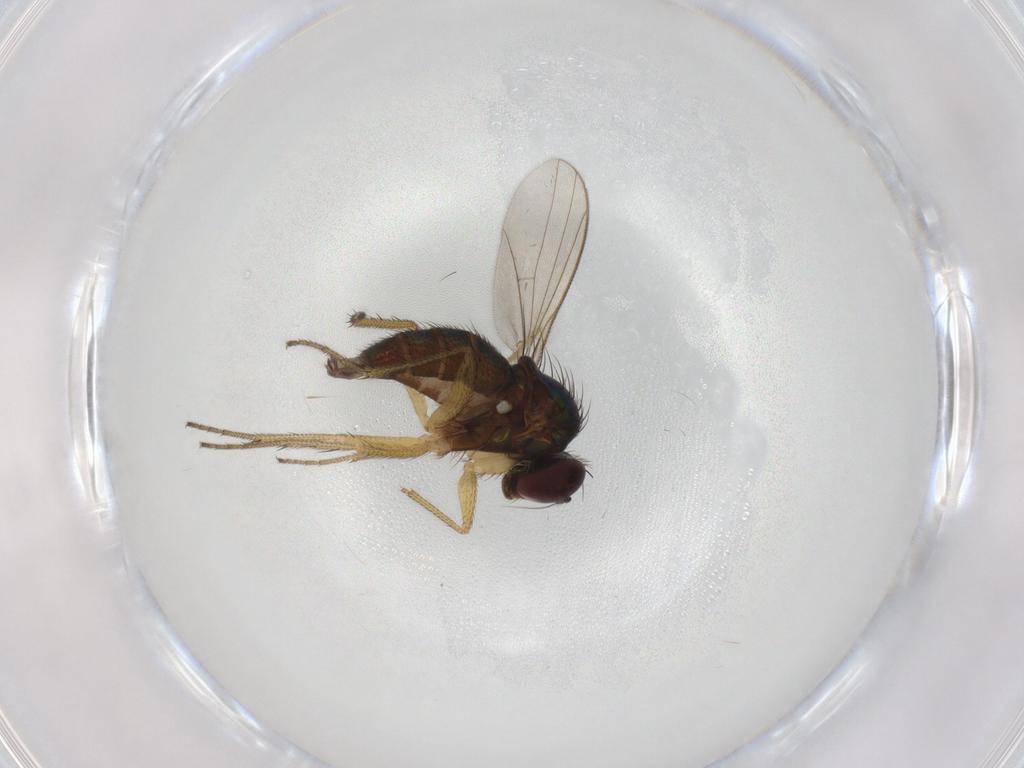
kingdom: Animalia
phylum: Arthropoda
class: Insecta
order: Diptera
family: Dolichopodidae
